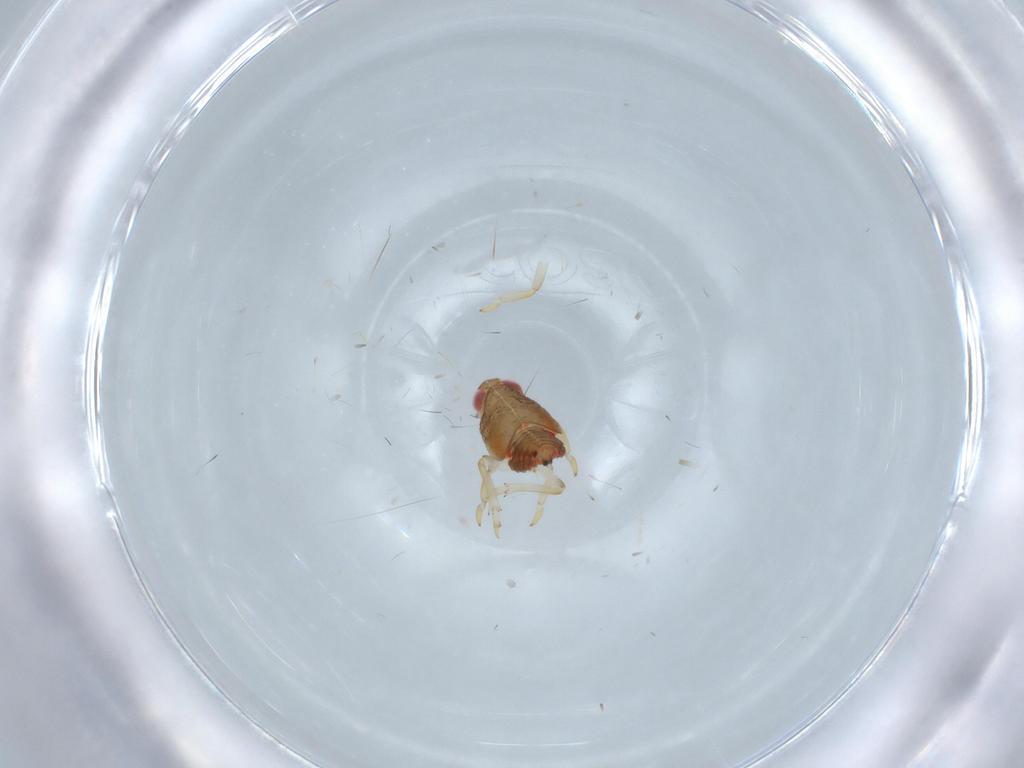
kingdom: Animalia
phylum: Arthropoda
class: Insecta
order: Hemiptera
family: Issidae
